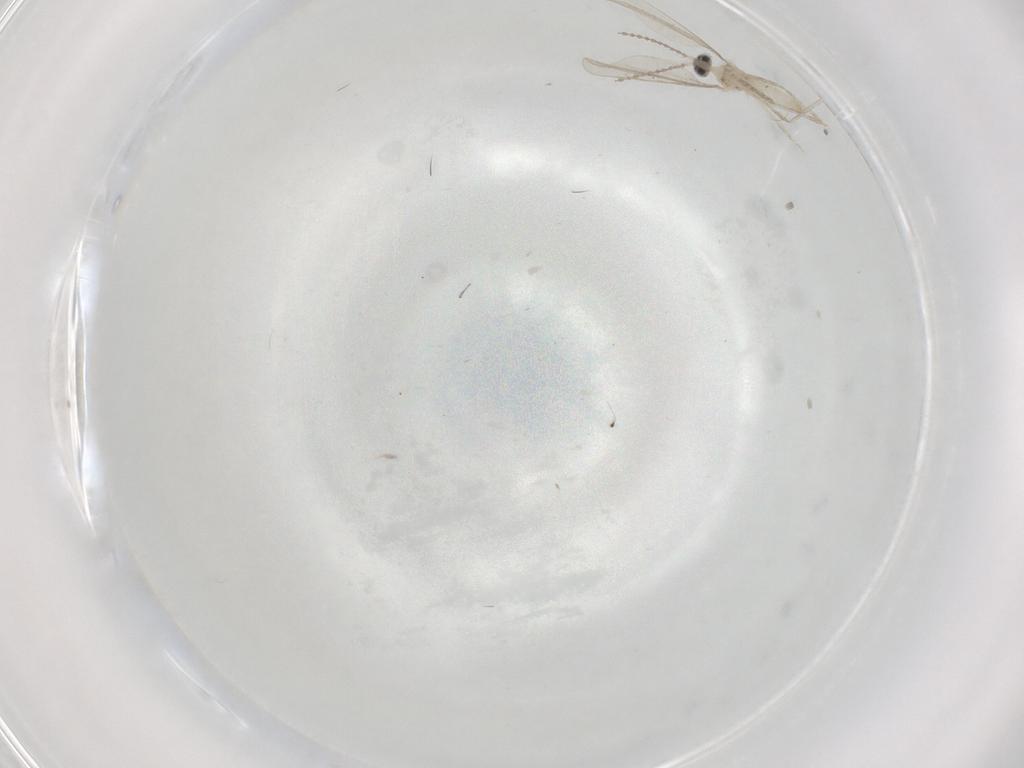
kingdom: Animalia
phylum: Arthropoda
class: Insecta
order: Diptera
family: Cecidomyiidae
